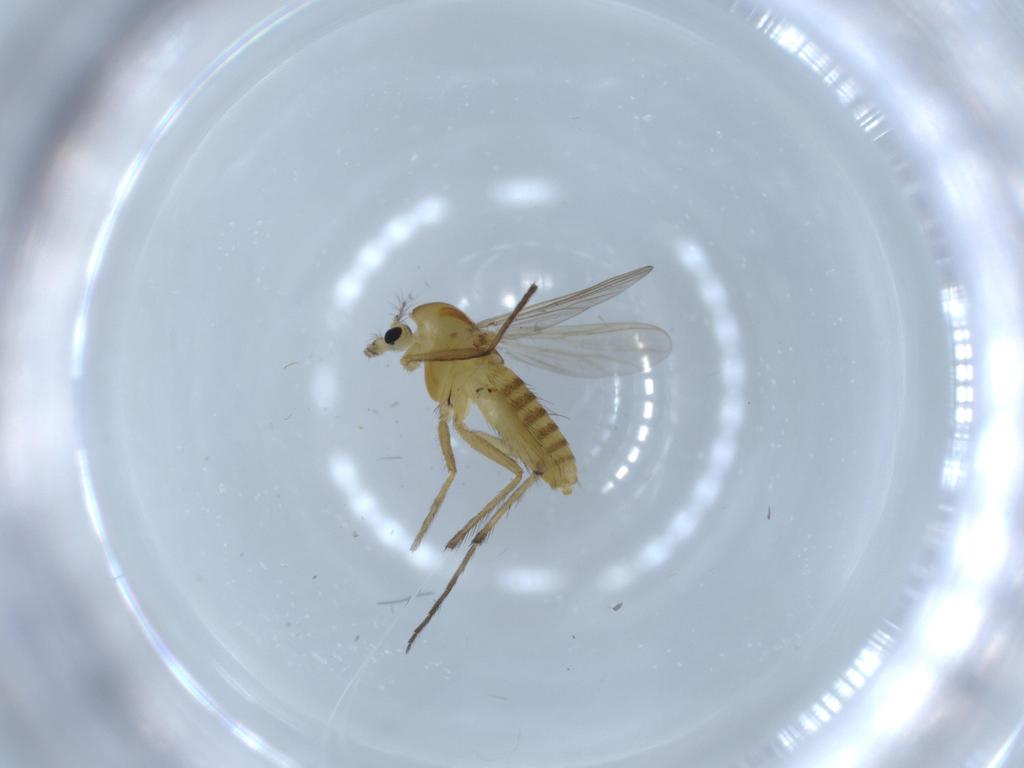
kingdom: Animalia
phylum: Arthropoda
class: Insecta
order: Diptera
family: Chironomidae
